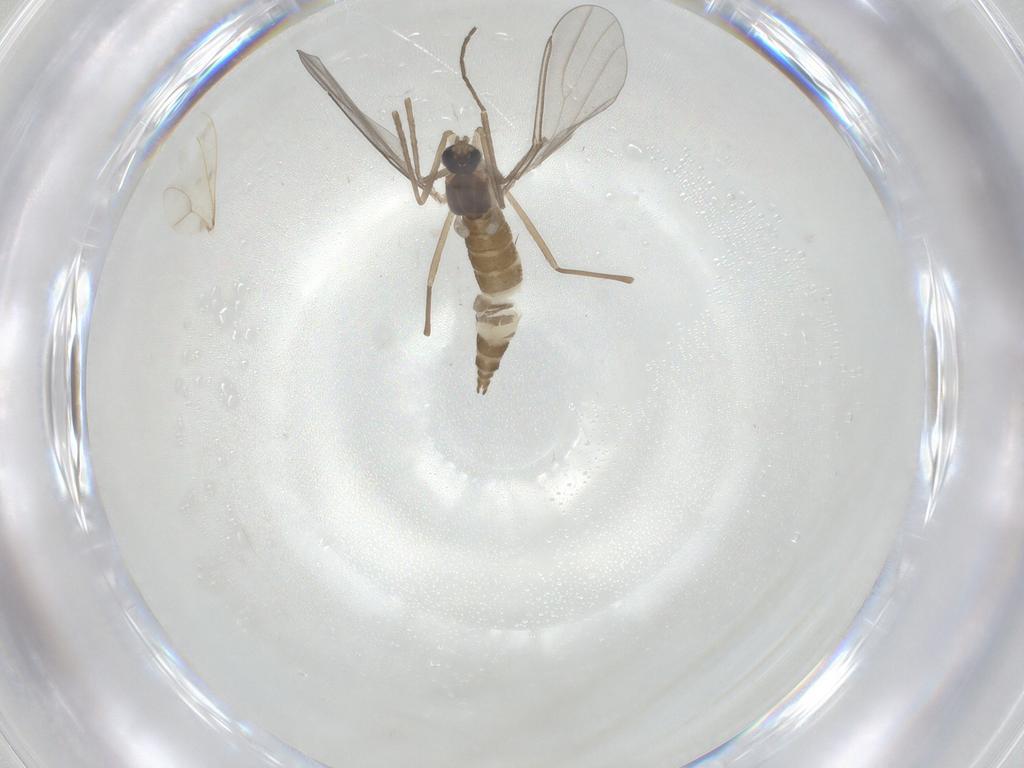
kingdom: Animalia
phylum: Arthropoda
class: Insecta
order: Diptera
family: Cecidomyiidae
